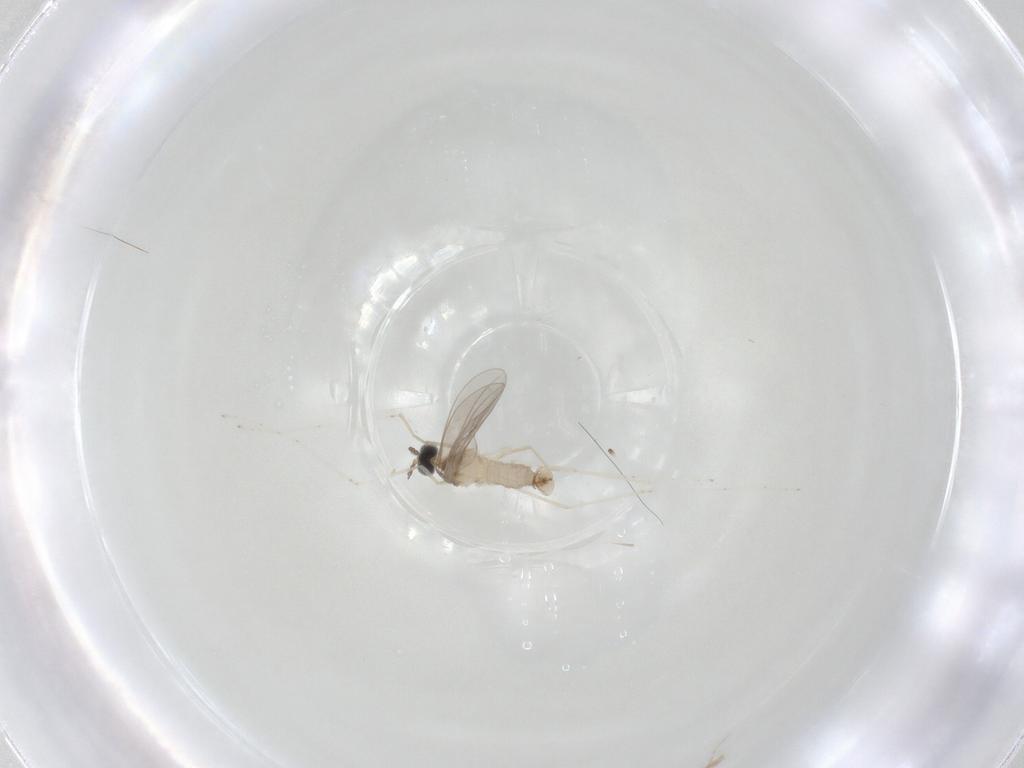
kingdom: Animalia
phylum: Arthropoda
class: Insecta
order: Diptera
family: Cecidomyiidae
